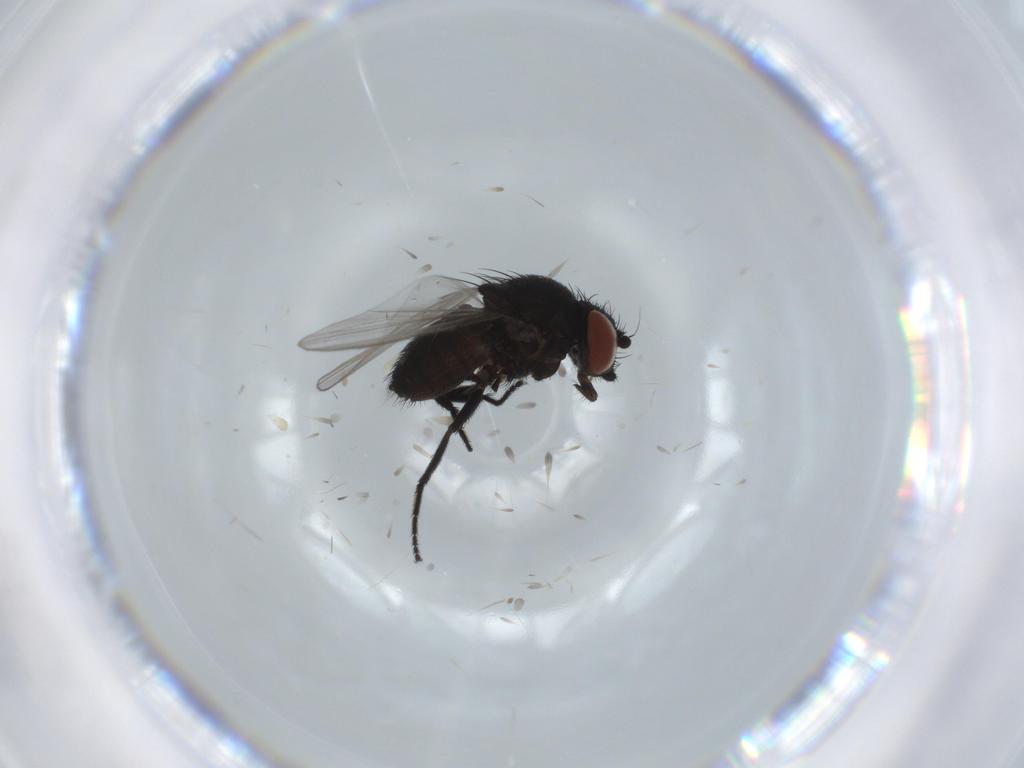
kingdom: Animalia
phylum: Arthropoda
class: Insecta
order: Diptera
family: Milichiidae
